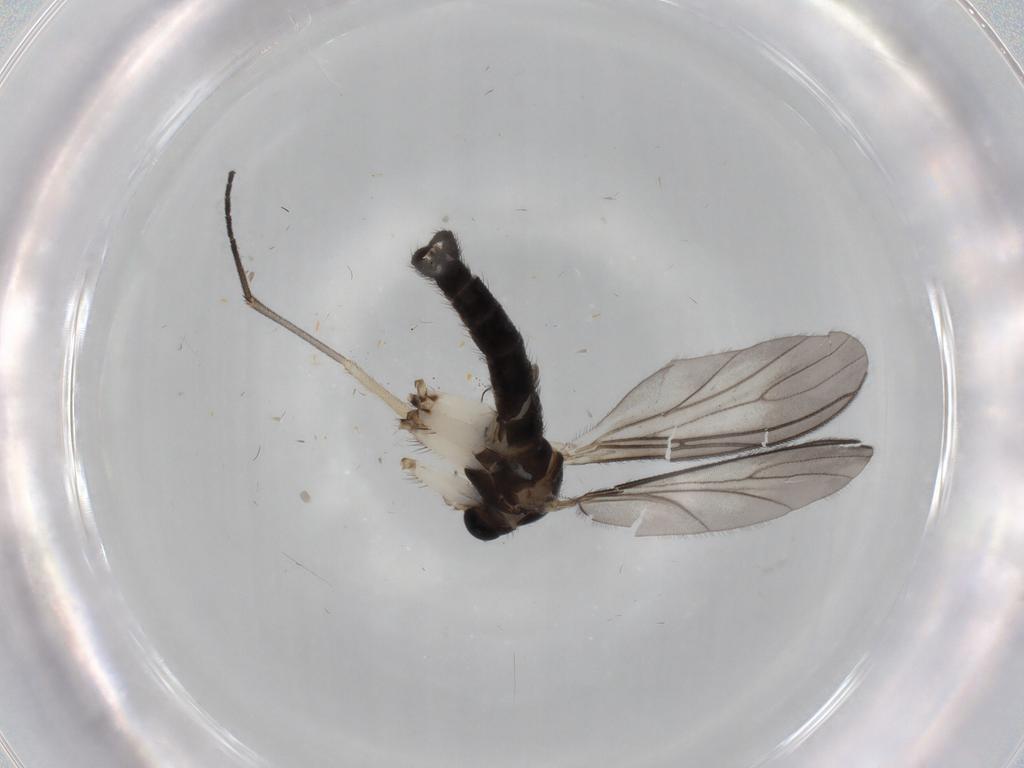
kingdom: Animalia
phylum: Arthropoda
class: Insecta
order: Diptera
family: Sciaridae
